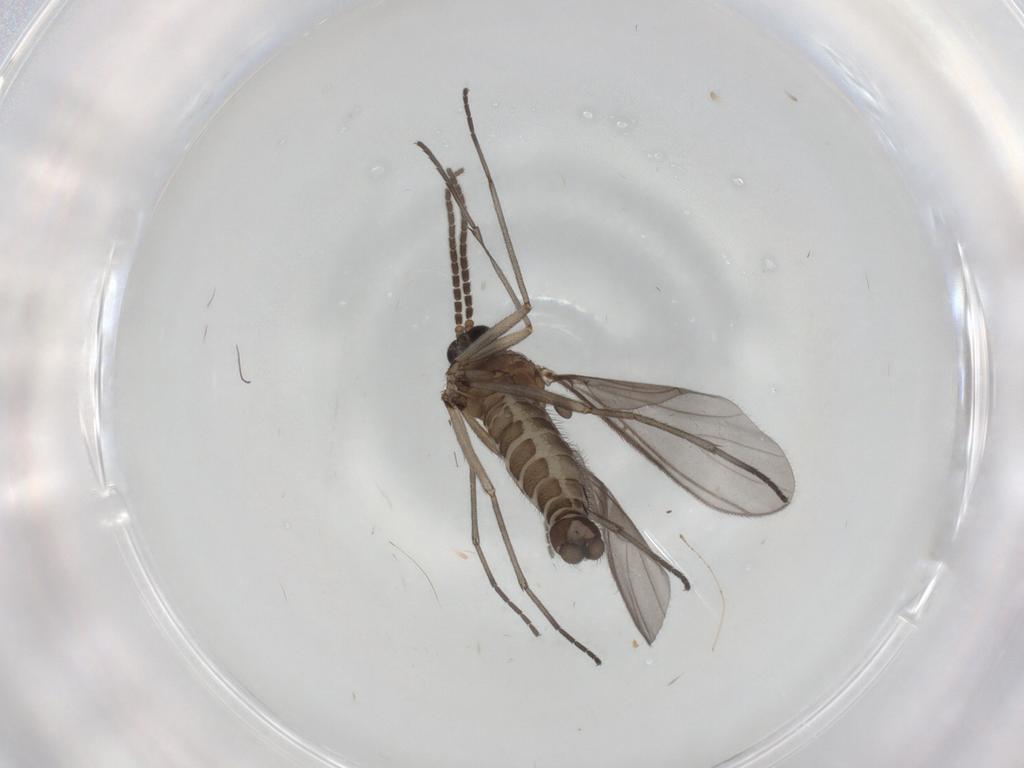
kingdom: Animalia
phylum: Arthropoda
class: Insecta
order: Diptera
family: Sciaridae
